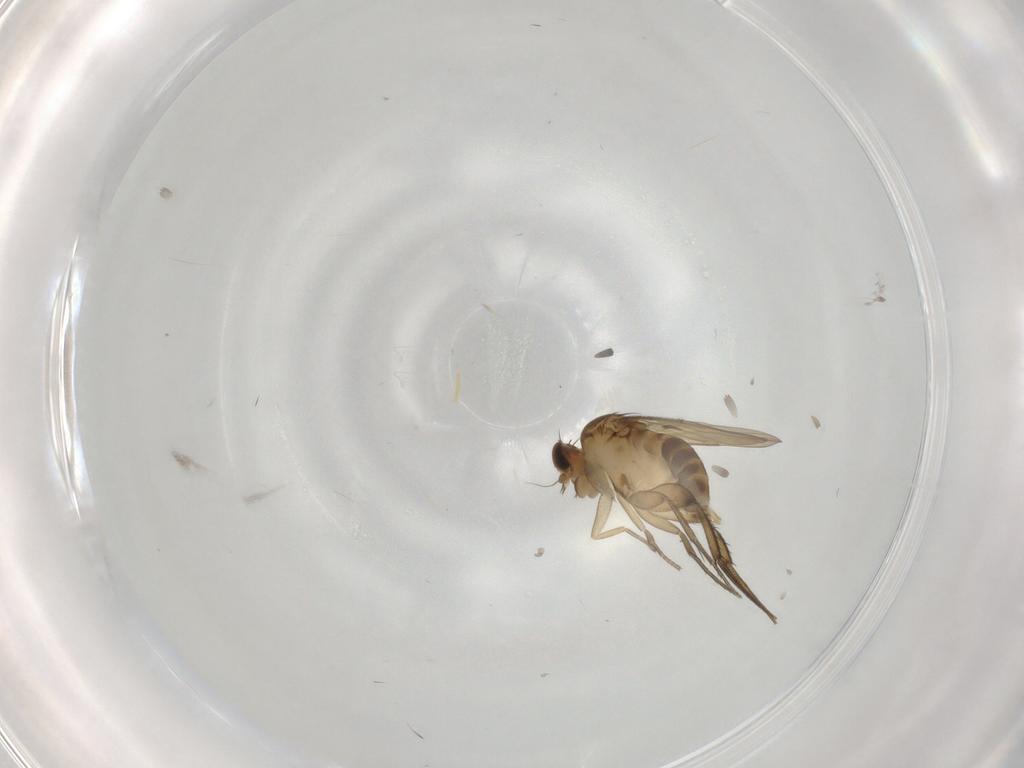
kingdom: Animalia
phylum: Arthropoda
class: Insecta
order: Diptera
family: Phoridae
